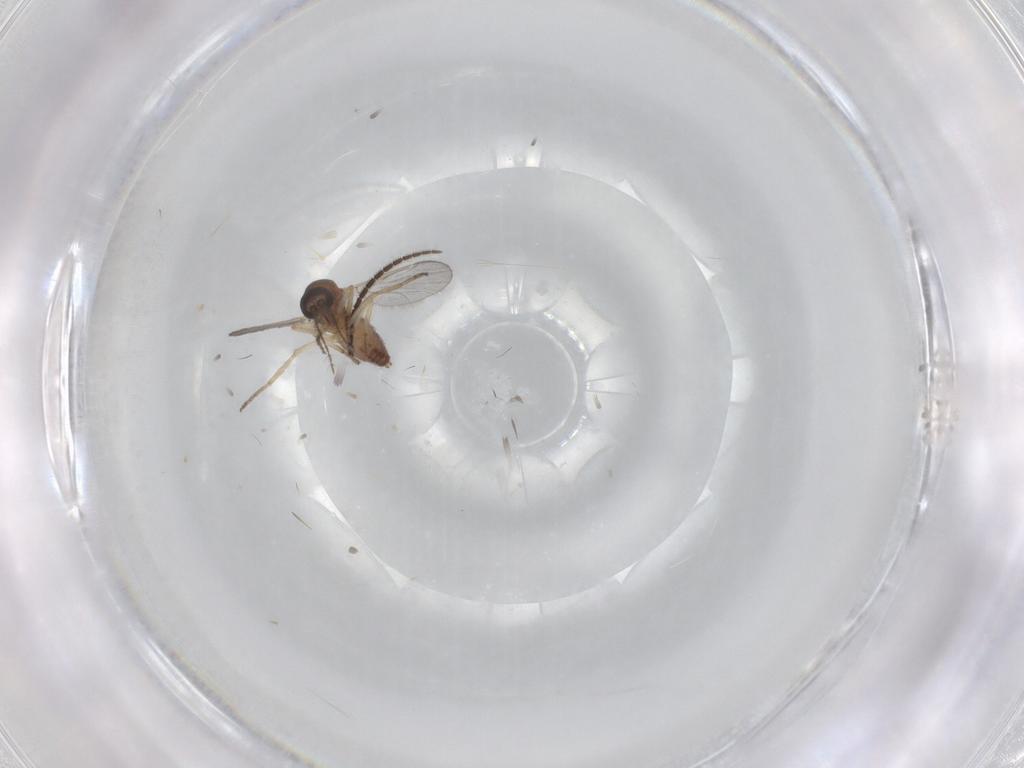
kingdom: Animalia
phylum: Arthropoda
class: Insecta
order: Diptera
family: Ceratopogonidae
